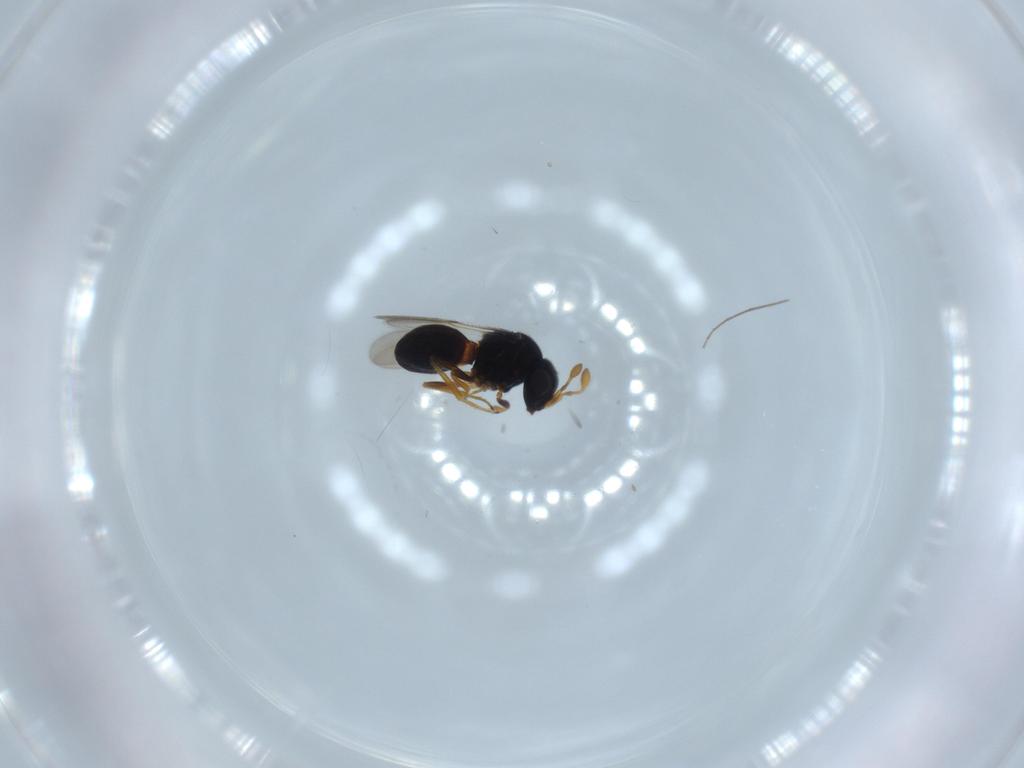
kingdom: Animalia
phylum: Arthropoda
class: Insecta
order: Hymenoptera
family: Scelionidae
